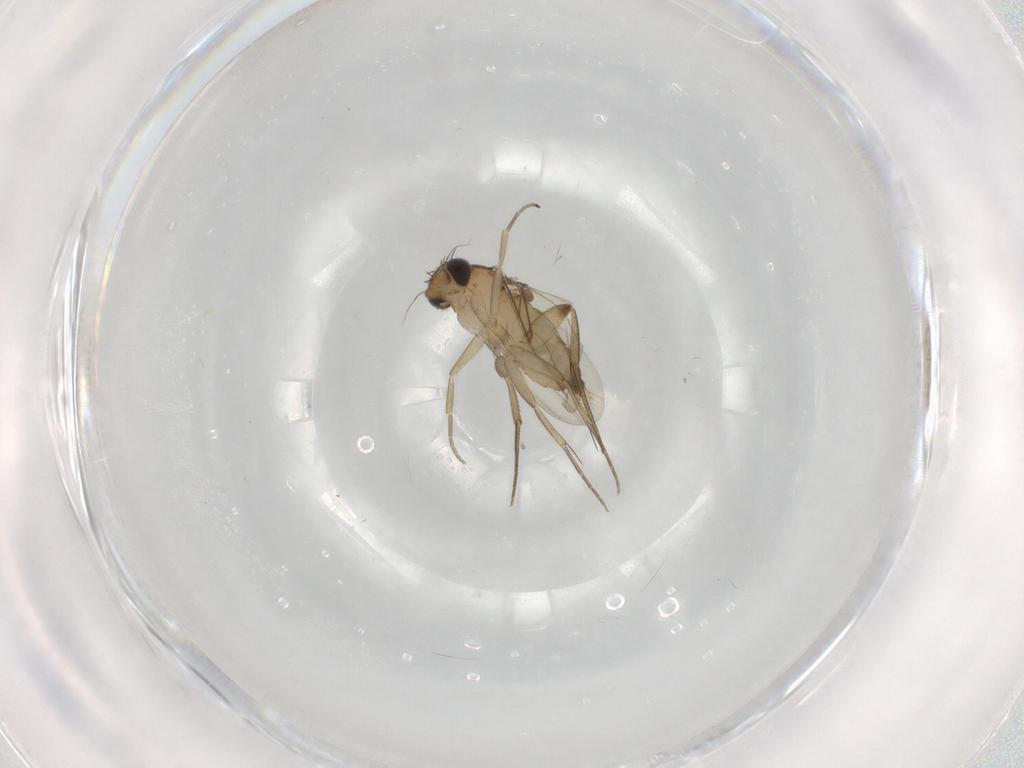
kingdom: Animalia
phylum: Arthropoda
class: Insecta
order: Diptera
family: Phoridae
